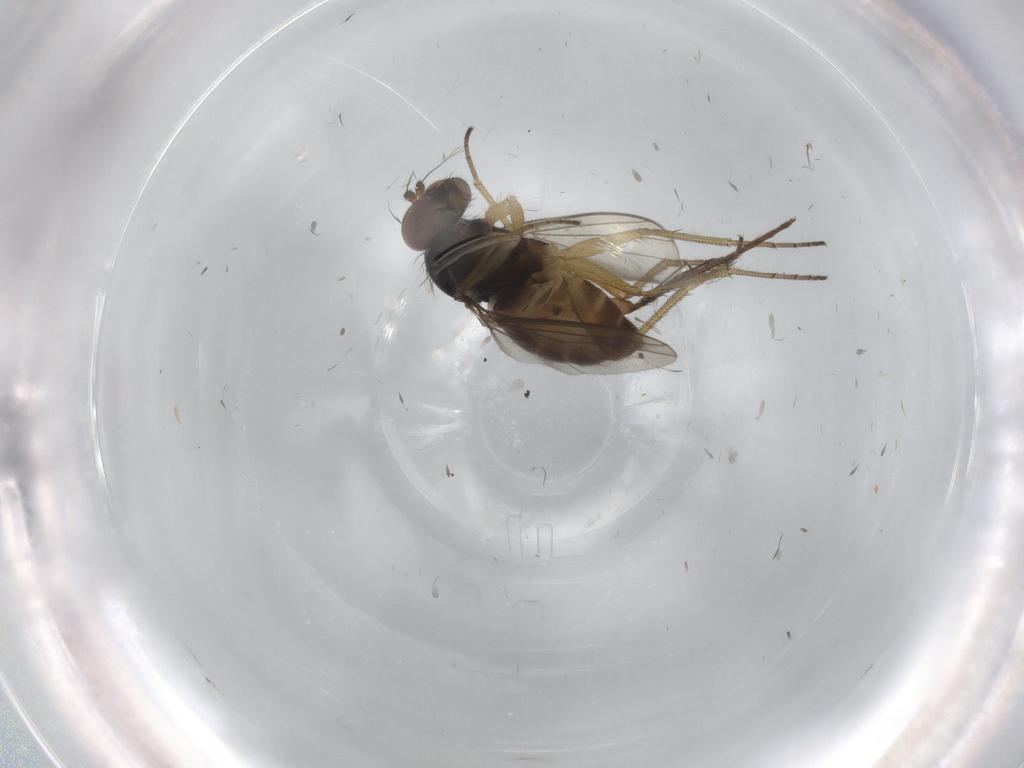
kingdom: Animalia
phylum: Arthropoda
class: Insecta
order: Diptera
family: Dolichopodidae
